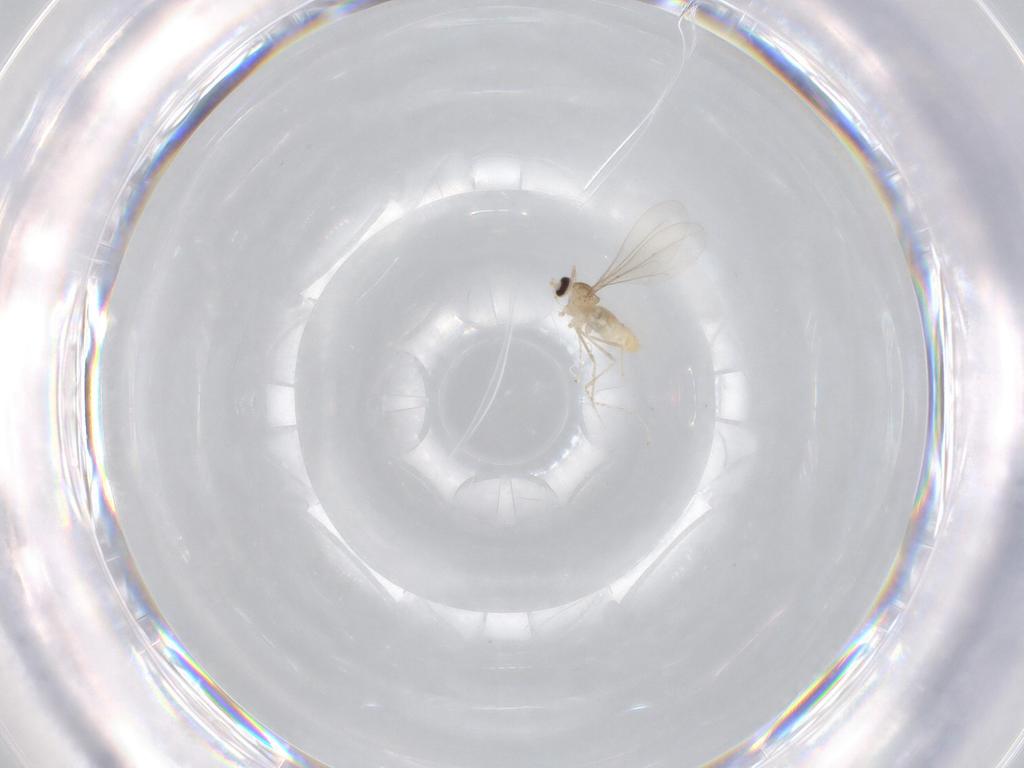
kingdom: Animalia
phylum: Arthropoda
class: Insecta
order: Diptera
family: Cecidomyiidae
